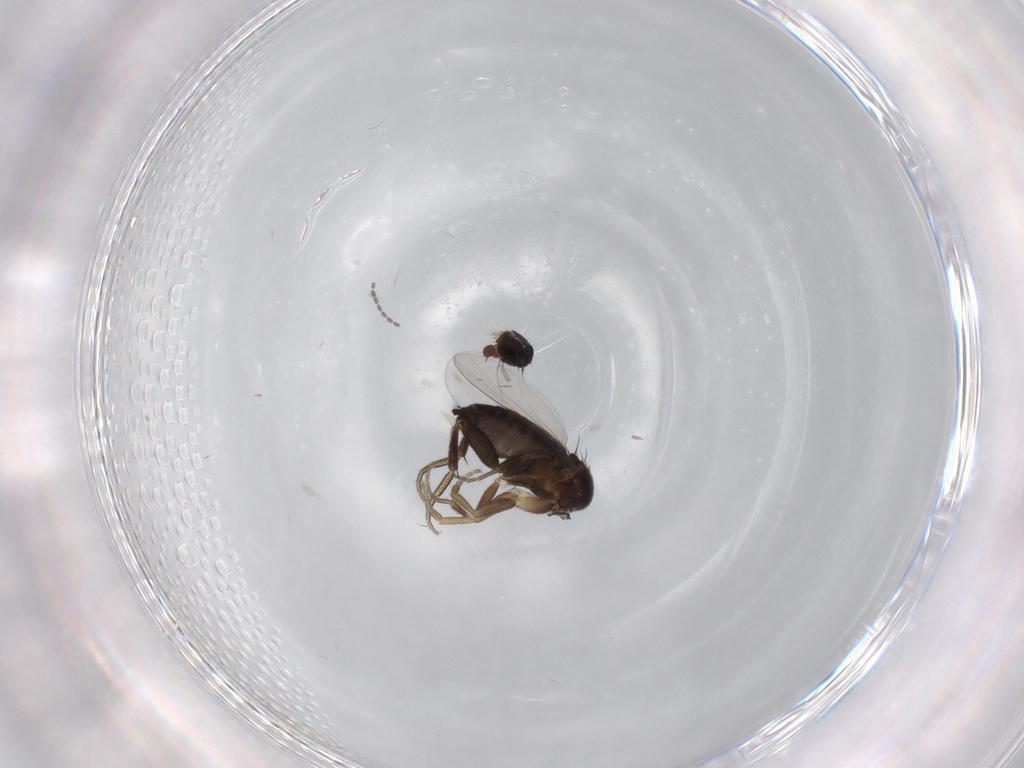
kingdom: Animalia
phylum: Arthropoda
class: Insecta
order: Diptera
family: Phoridae
